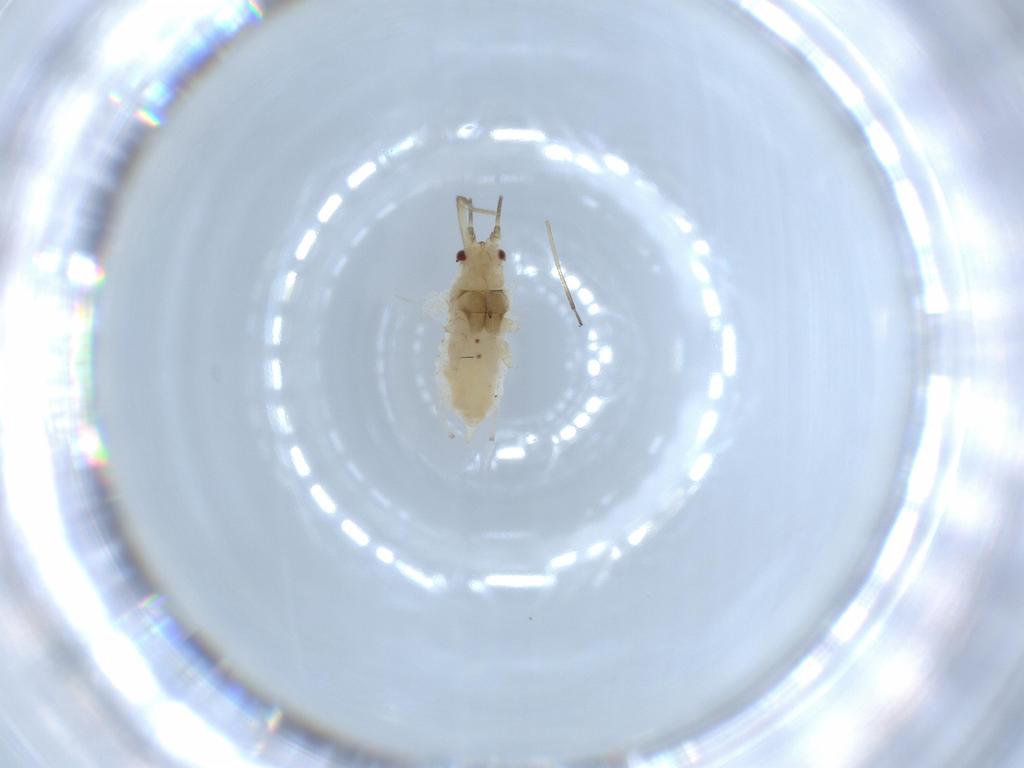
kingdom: Animalia
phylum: Arthropoda
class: Insecta
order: Hemiptera
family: Aphididae
